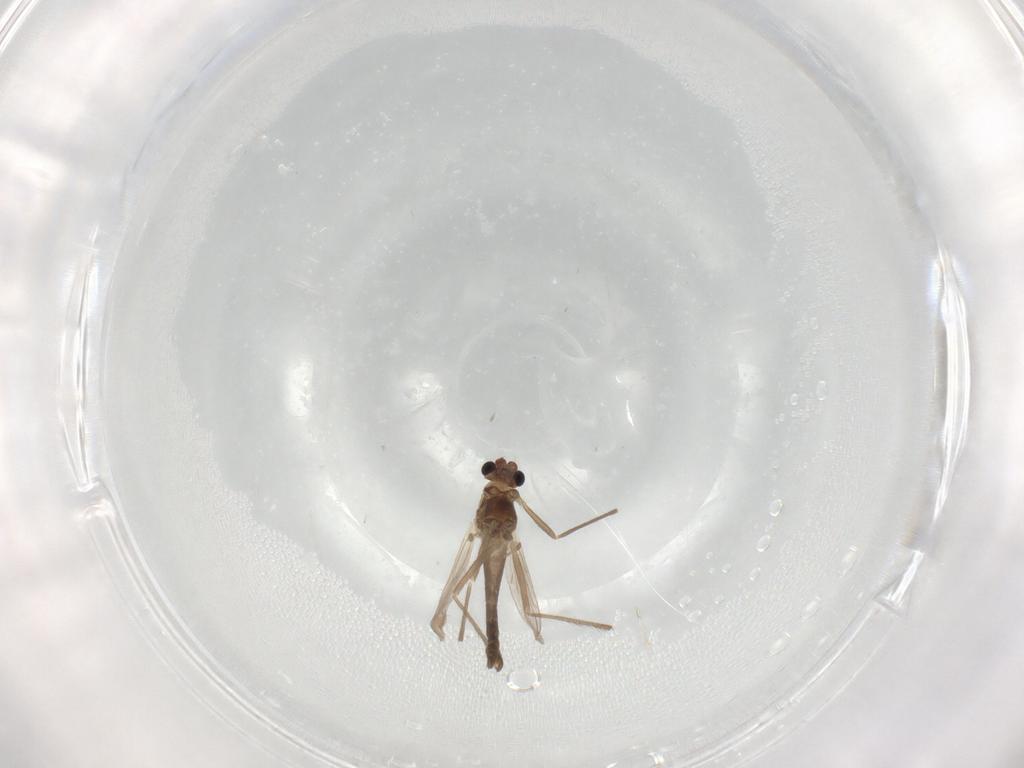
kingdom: Animalia
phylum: Arthropoda
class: Insecta
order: Diptera
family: Chironomidae
